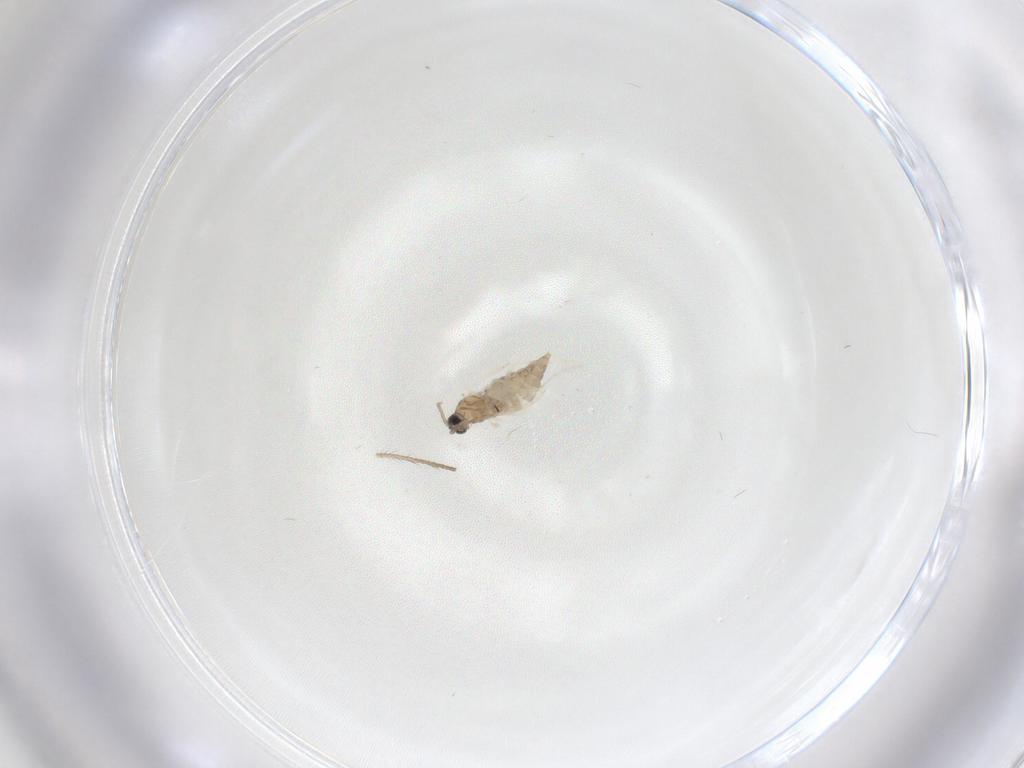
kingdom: Animalia
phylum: Arthropoda
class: Insecta
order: Diptera
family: Cecidomyiidae
